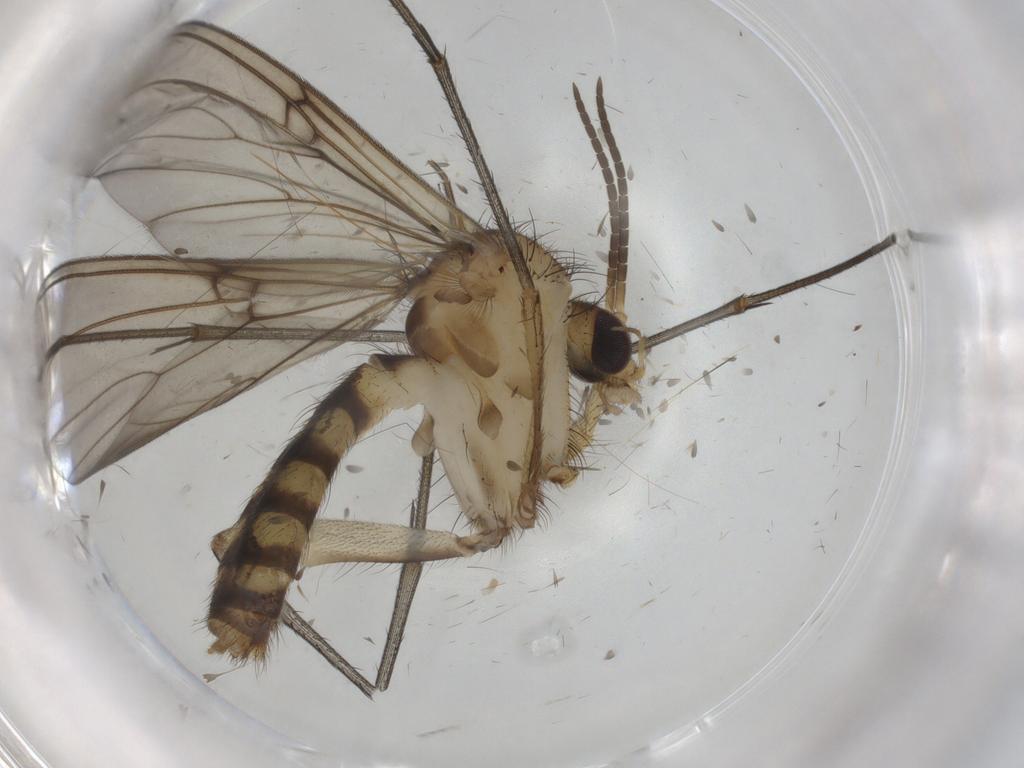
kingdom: Animalia
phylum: Arthropoda
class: Insecta
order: Diptera
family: Mycetophilidae
